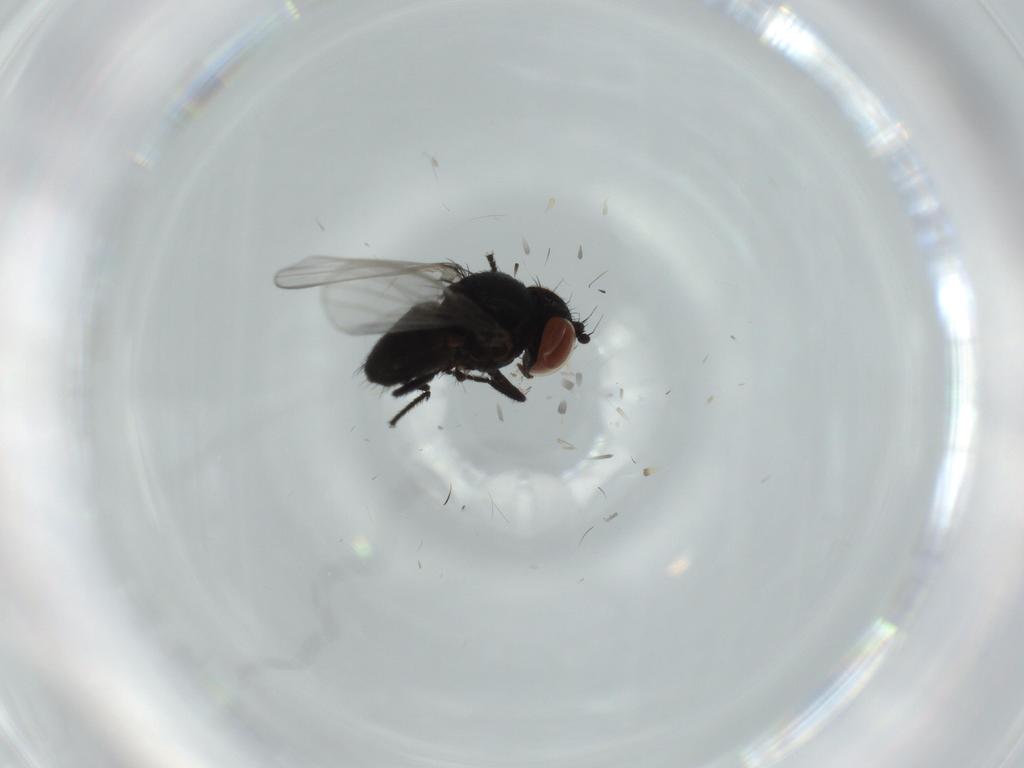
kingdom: Animalia
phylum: Arthropoda
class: Insecta
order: Diptera
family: Milichiidae
